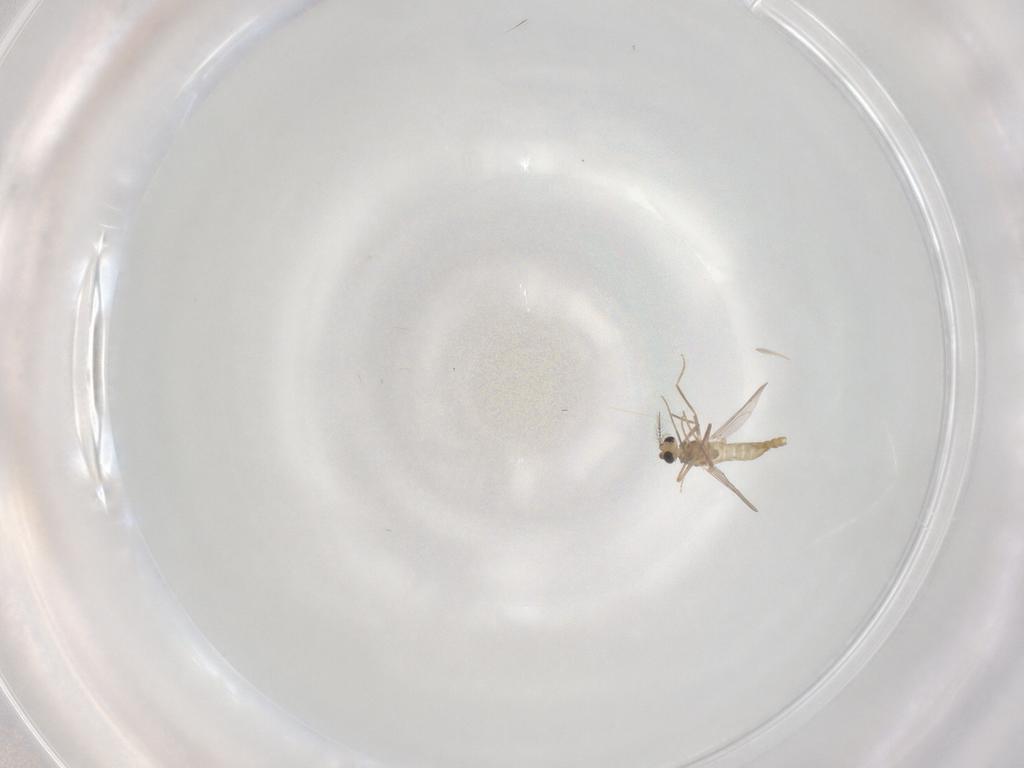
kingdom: Animalia
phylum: Arthropoda
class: Insecta
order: Diptera
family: Chironomidae
